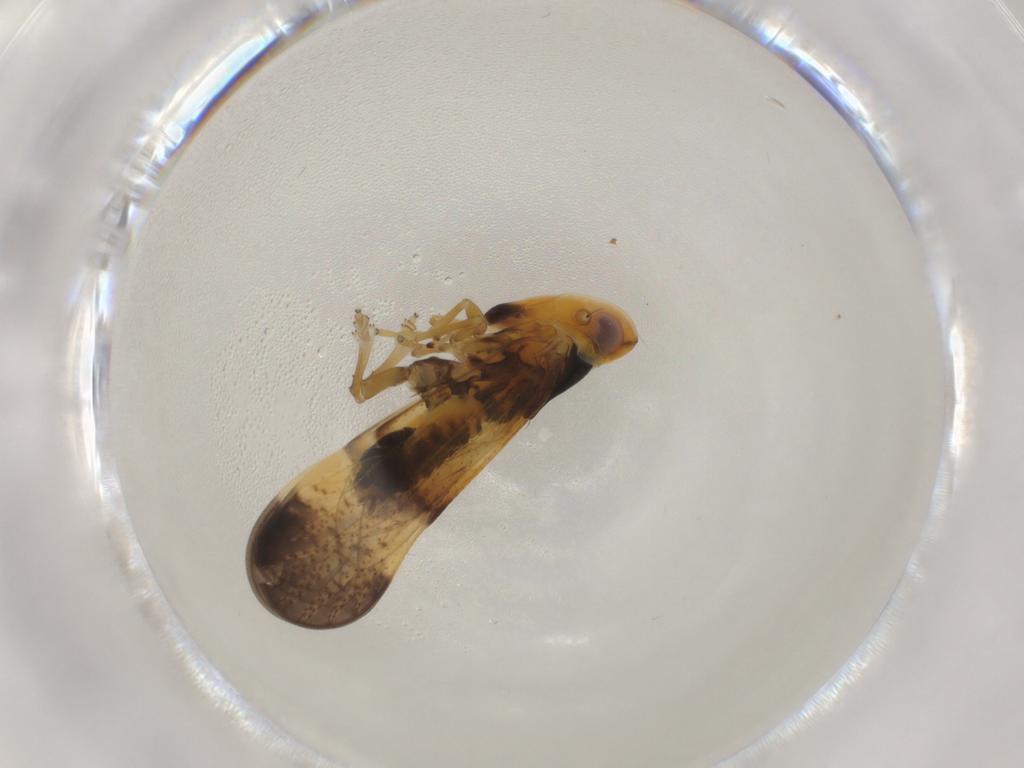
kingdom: Animalia
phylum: Arthropoda
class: Insecta
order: Hemiptera
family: Cixiidae
